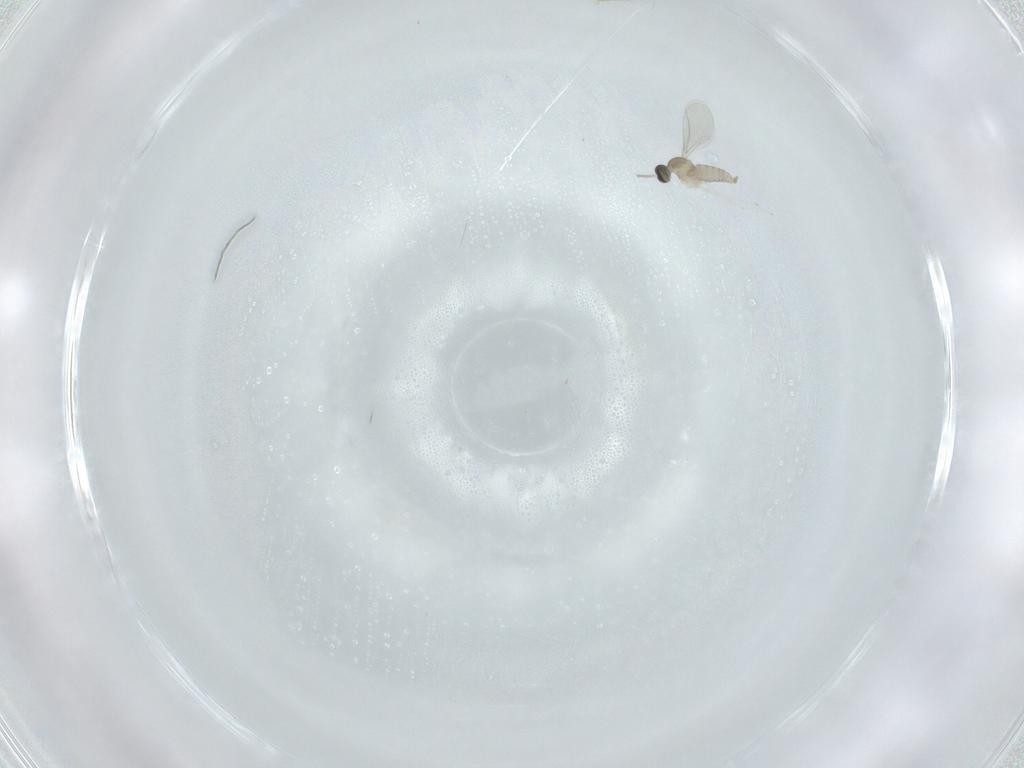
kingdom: Animalia
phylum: Arthropoda
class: Insecta
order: Diptera
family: Cecidomyiidae
